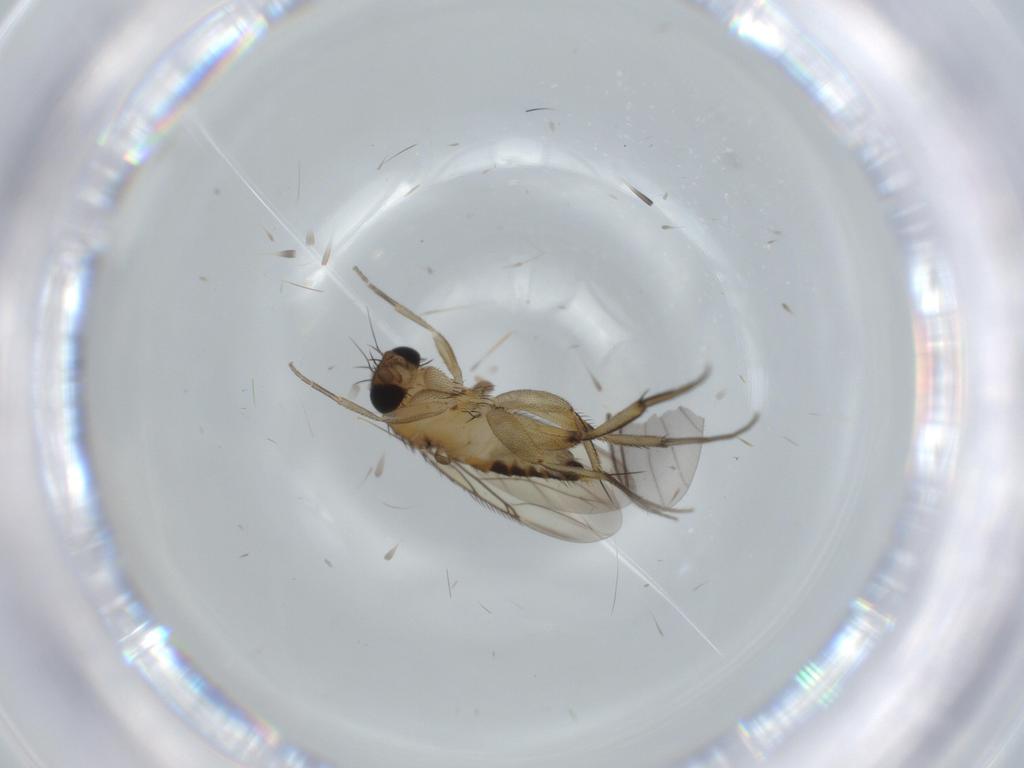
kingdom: Animalia
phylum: Arthropoda
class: Insecta
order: Diptera
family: Phoridae
